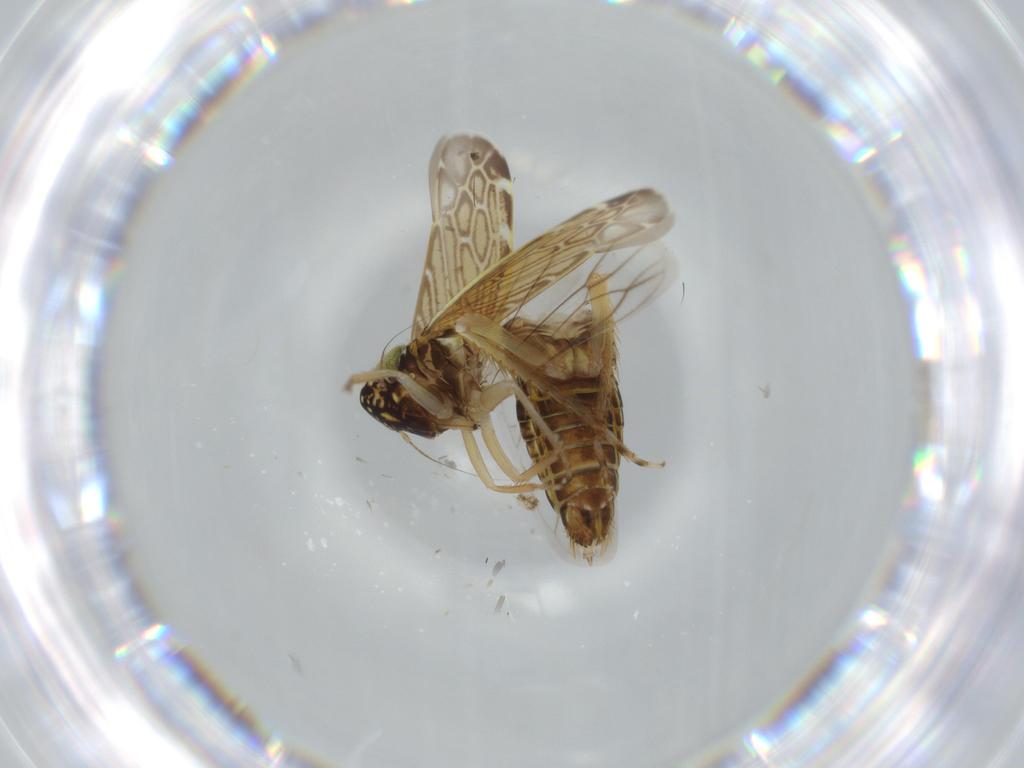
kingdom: Animalia
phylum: Arthropoda
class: Insecta
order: Hemiptera
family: Cicadellidae
